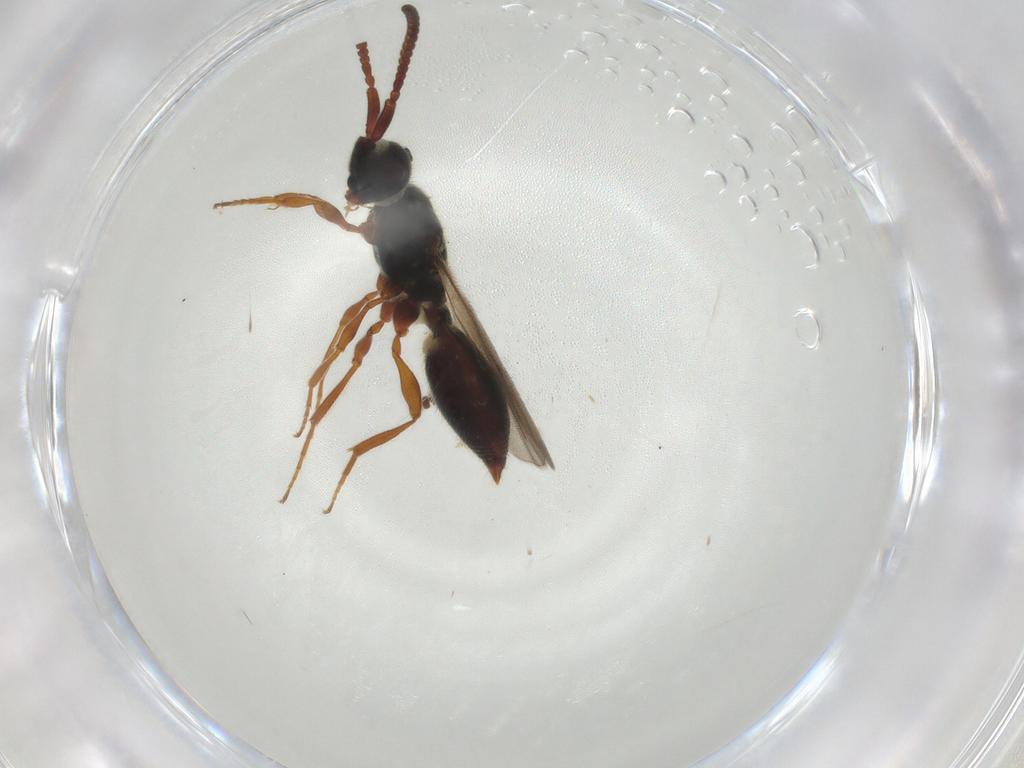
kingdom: Animalia
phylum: Arthropoda
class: Insecta
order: Hymenoptera
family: Diapriidae
